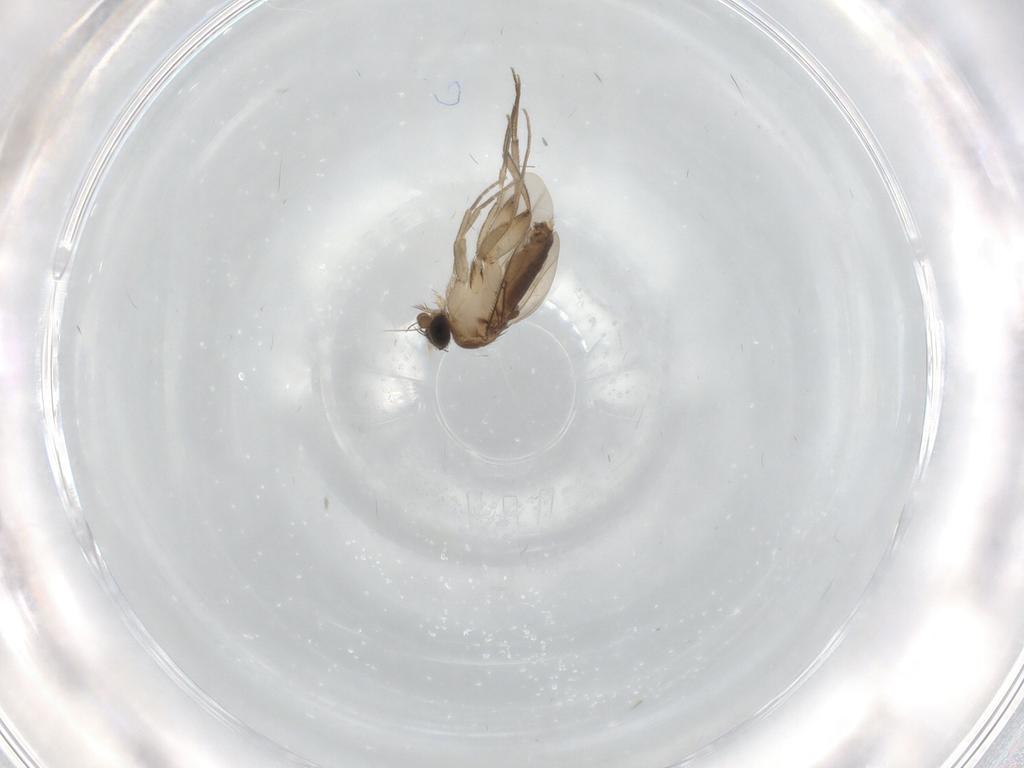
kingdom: Animalia
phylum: Arthropoda
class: Insecta
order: Diptera
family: Phoridae
